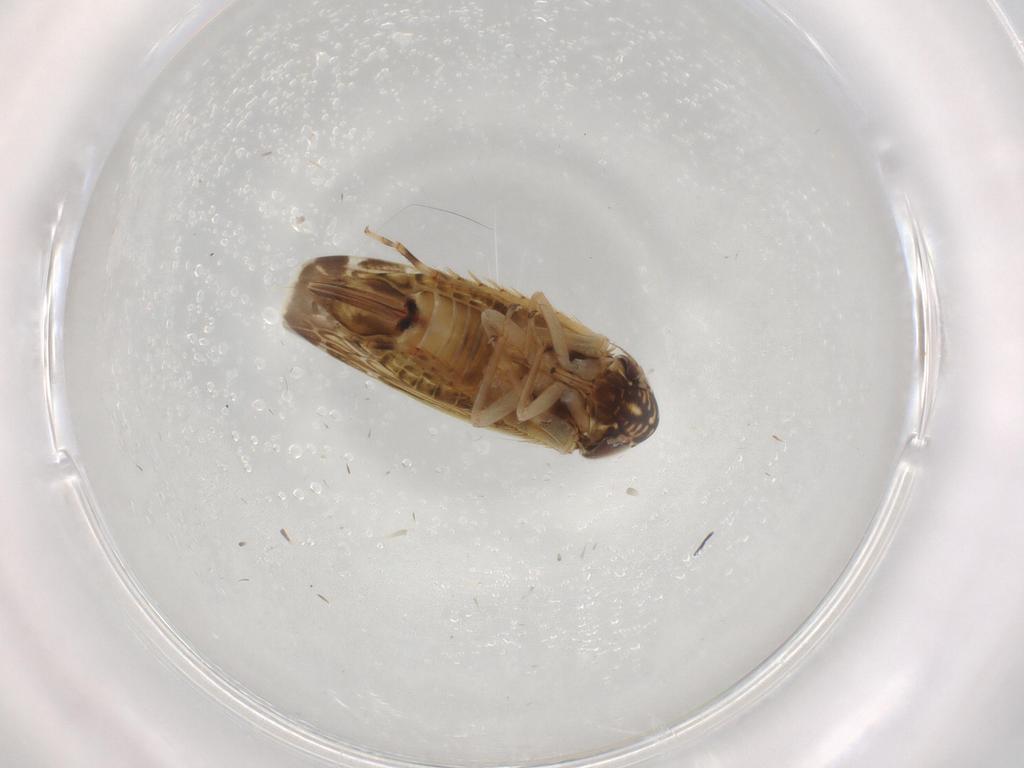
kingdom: Animalia
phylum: Arthropoda
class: Insecta
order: Hemiptera
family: Cicadellidae
